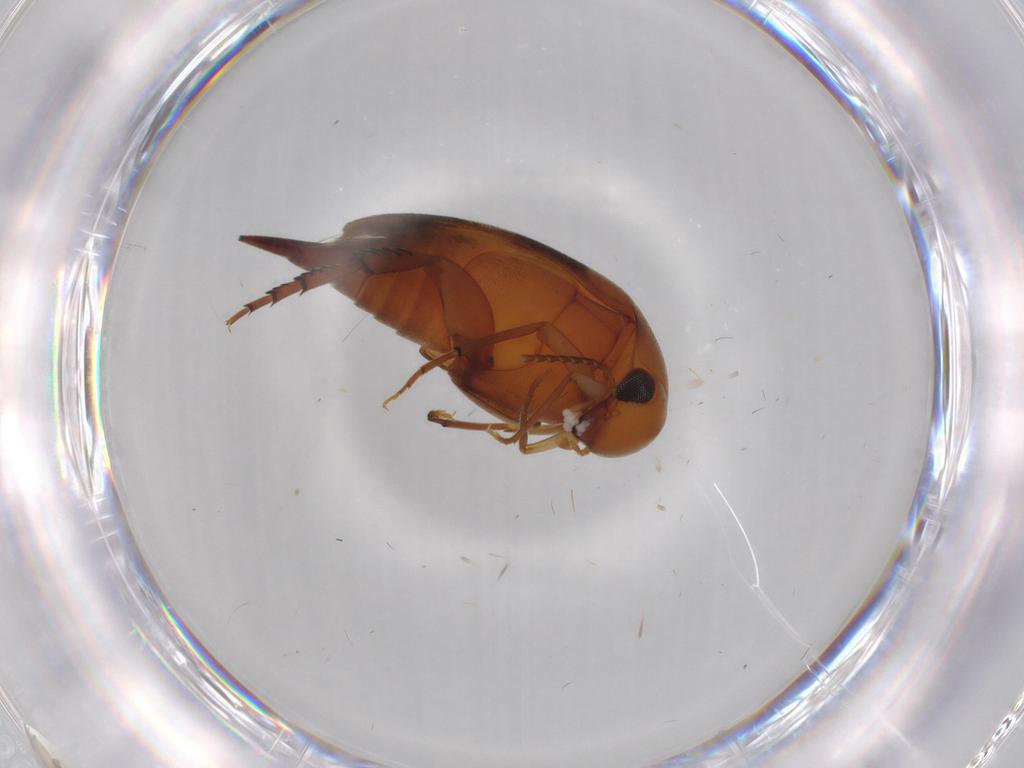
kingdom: Animalia
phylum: Arthropoda
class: Insecta
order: Coleoptera
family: Mordellidae
